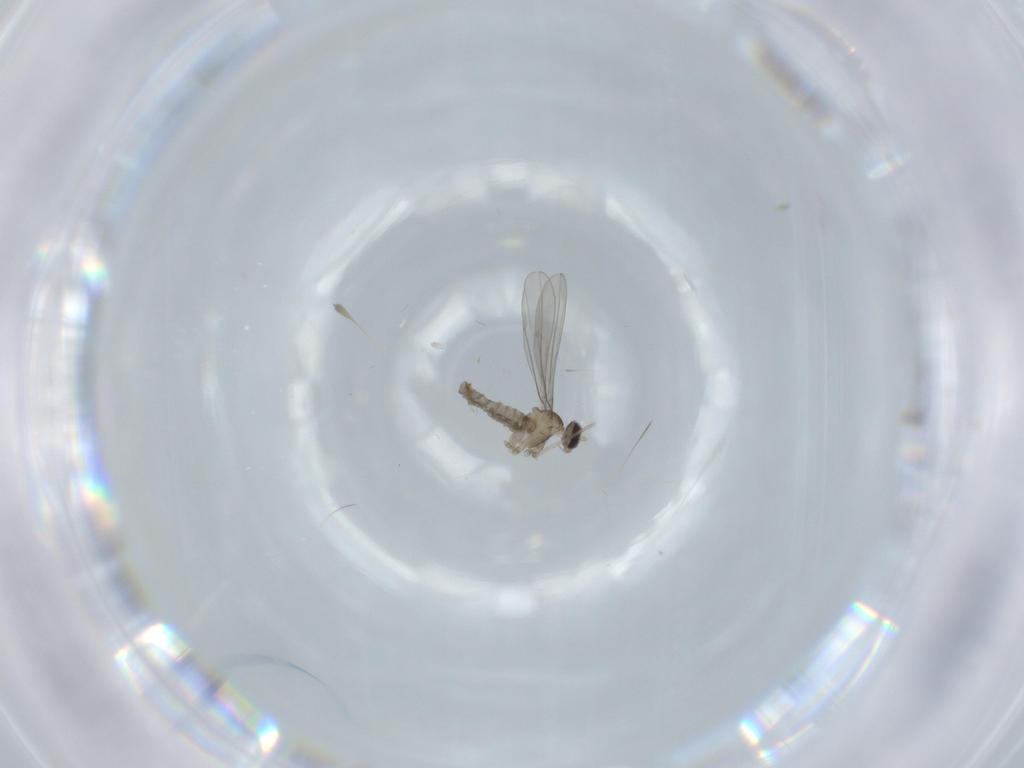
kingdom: Animalia
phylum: Arthropoda
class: Insecta
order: Diptera
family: Cecidomyiidae
